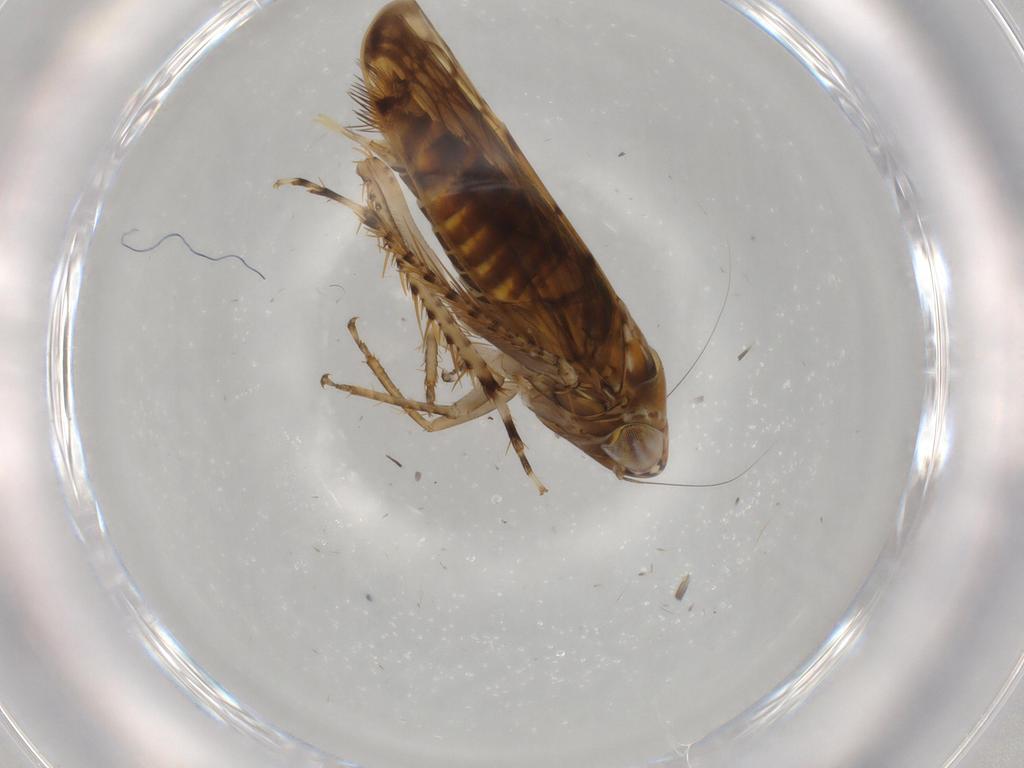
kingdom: Animalia
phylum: Arthropoda
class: Insecta
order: Hemiptera
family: Cicadellidae
